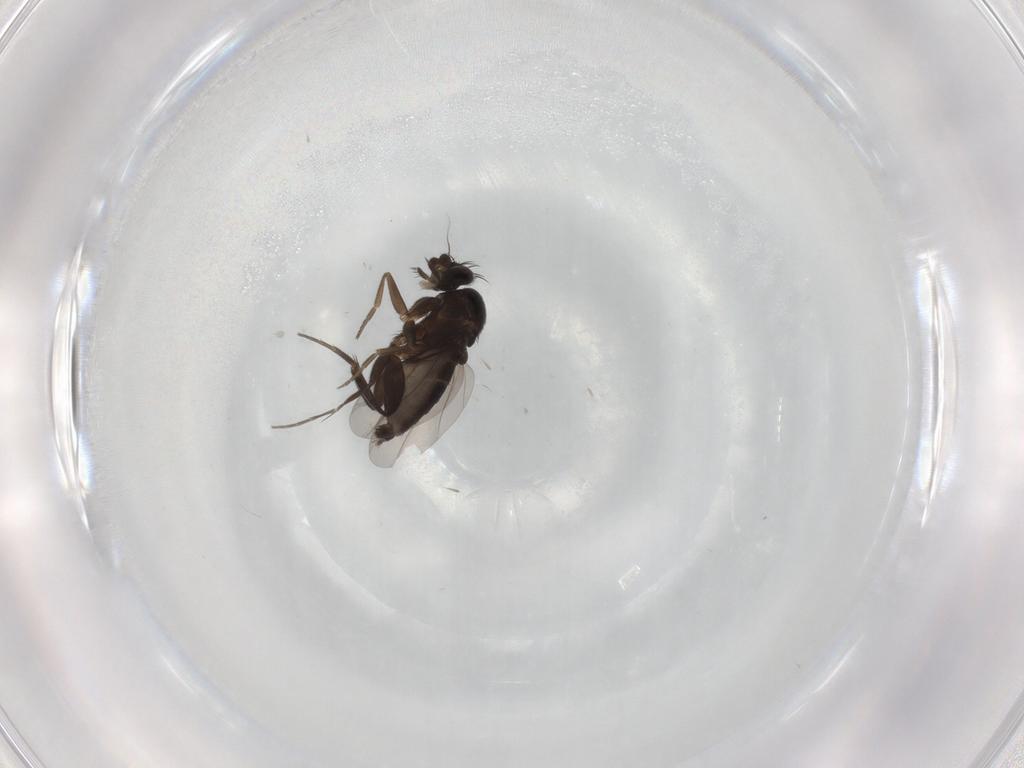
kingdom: Animalia
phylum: Arthropoda
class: Insecta
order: Diptera
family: Phoridae
